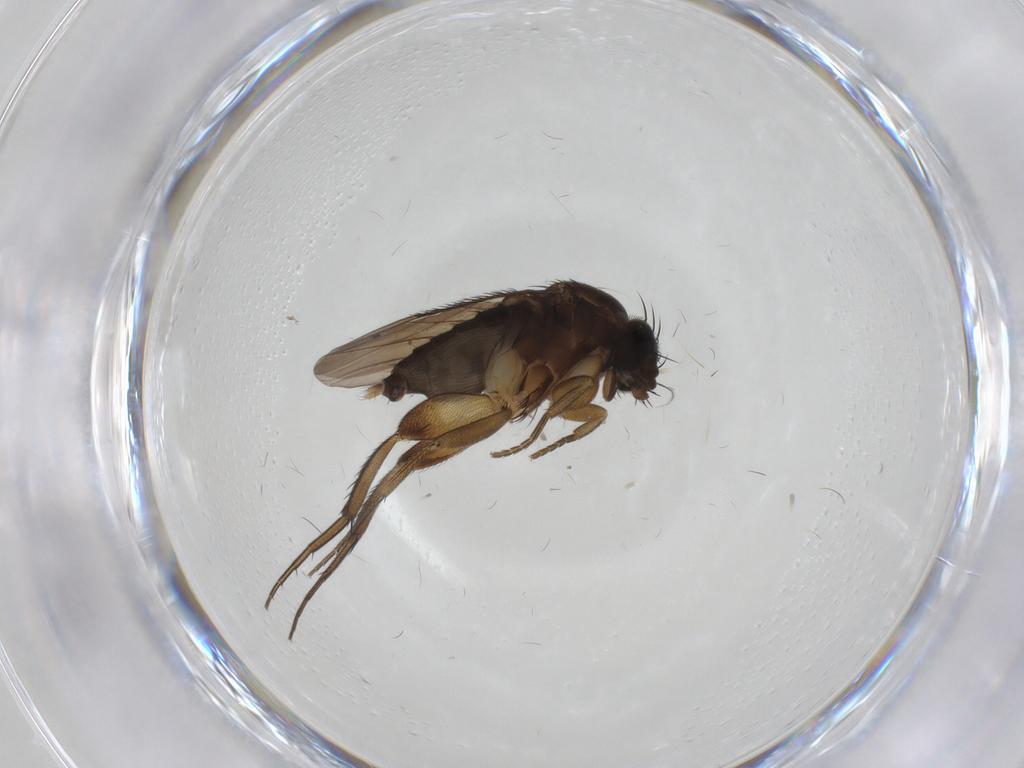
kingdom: Animalia
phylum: Arthropoda
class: Insecta
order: Diptera
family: Phoridae
